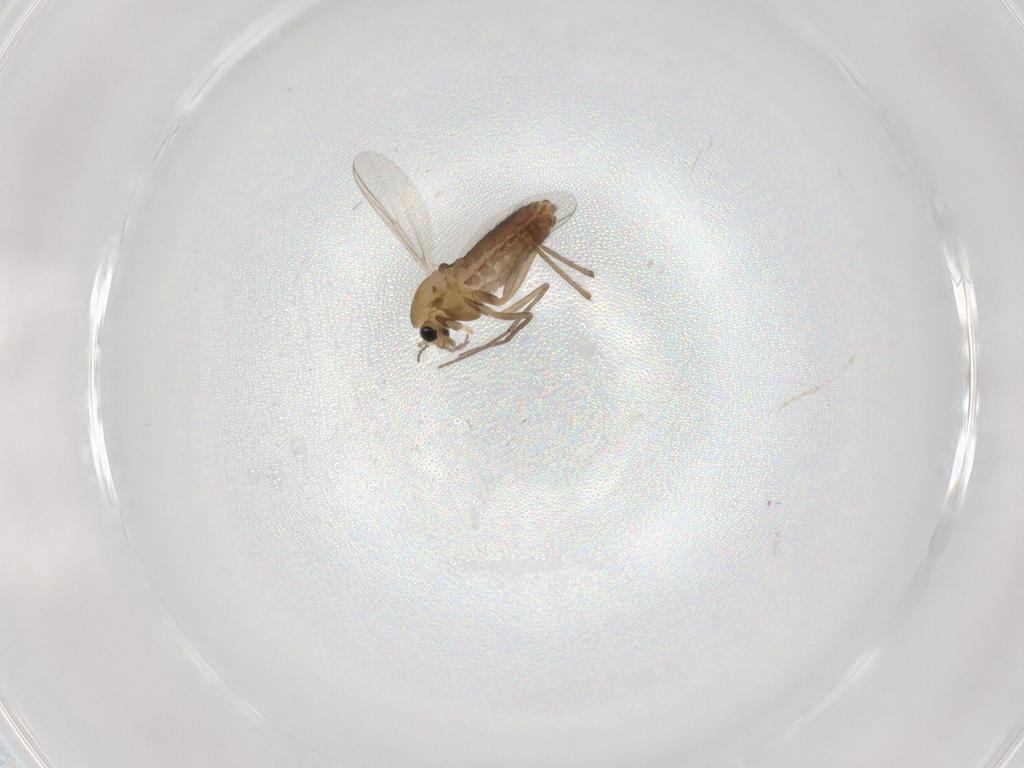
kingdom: Animalia
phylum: Arthropoda
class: Insecta
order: Diptera
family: Chironomidae
